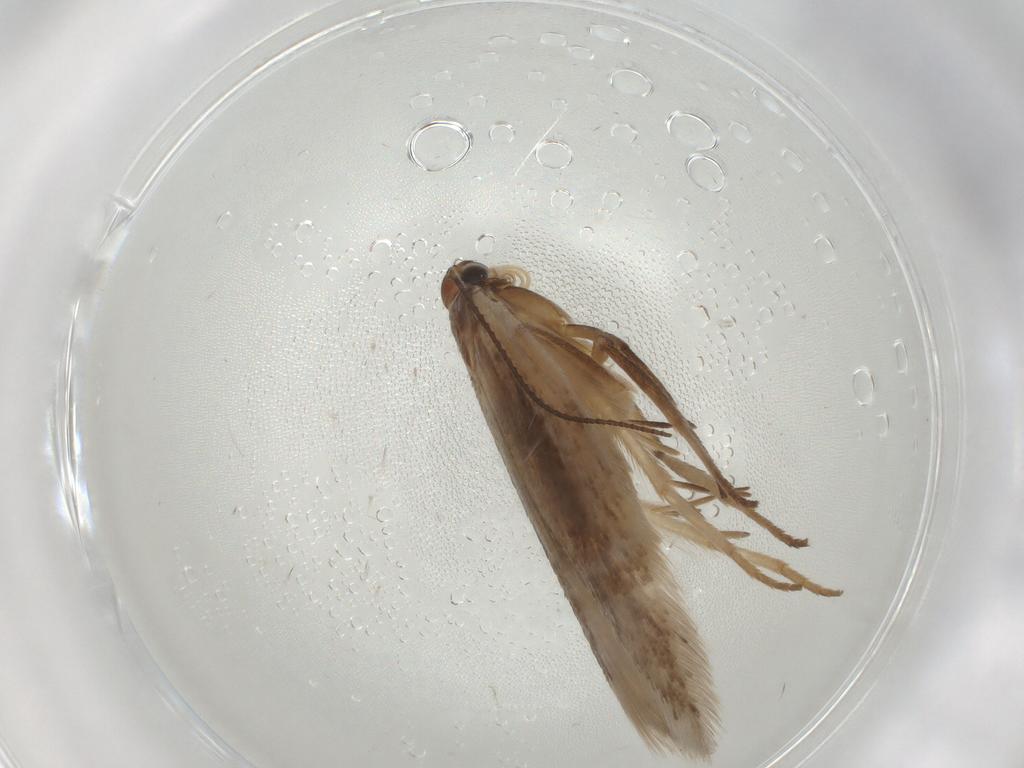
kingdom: Animalia
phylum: Arthropoda
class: Insecta
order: Lepidoptera
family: Gelechiidae
